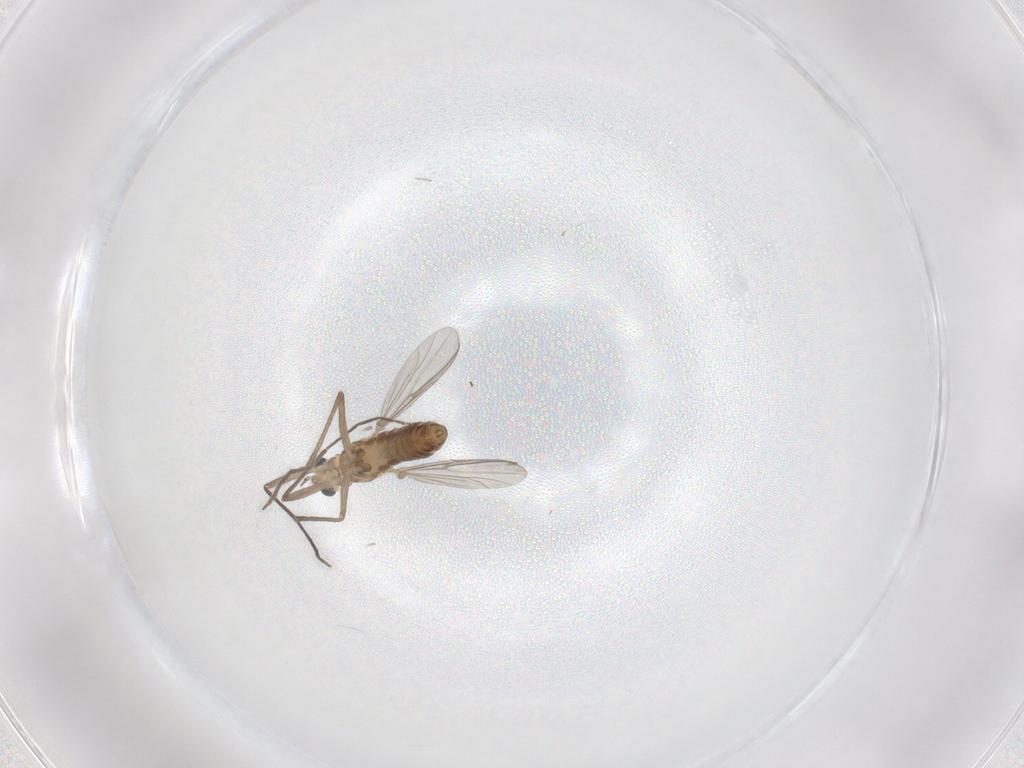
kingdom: Animalia
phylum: Arthropoda
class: Insecta
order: Diptera
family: Chironomidae
